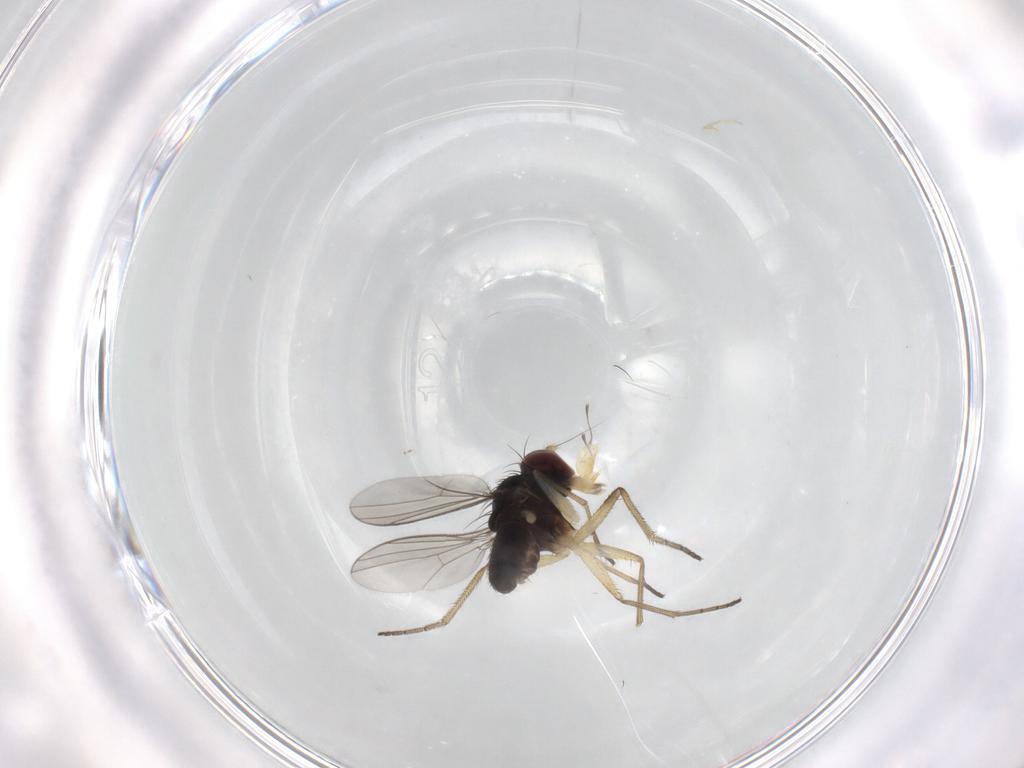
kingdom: Animalia
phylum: Arthropoda
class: Insecta
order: Diptera
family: Dolichopodidae
